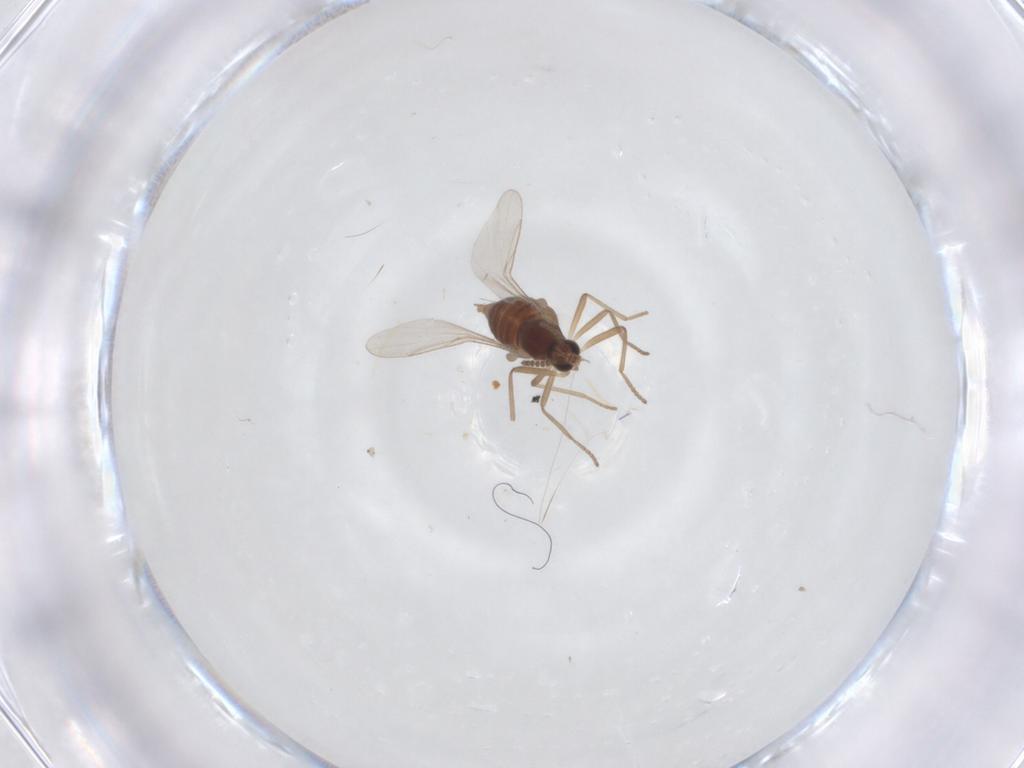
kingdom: Animalia
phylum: Arthropoda
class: Insecta
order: Diptera
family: Cecidomyiidae
